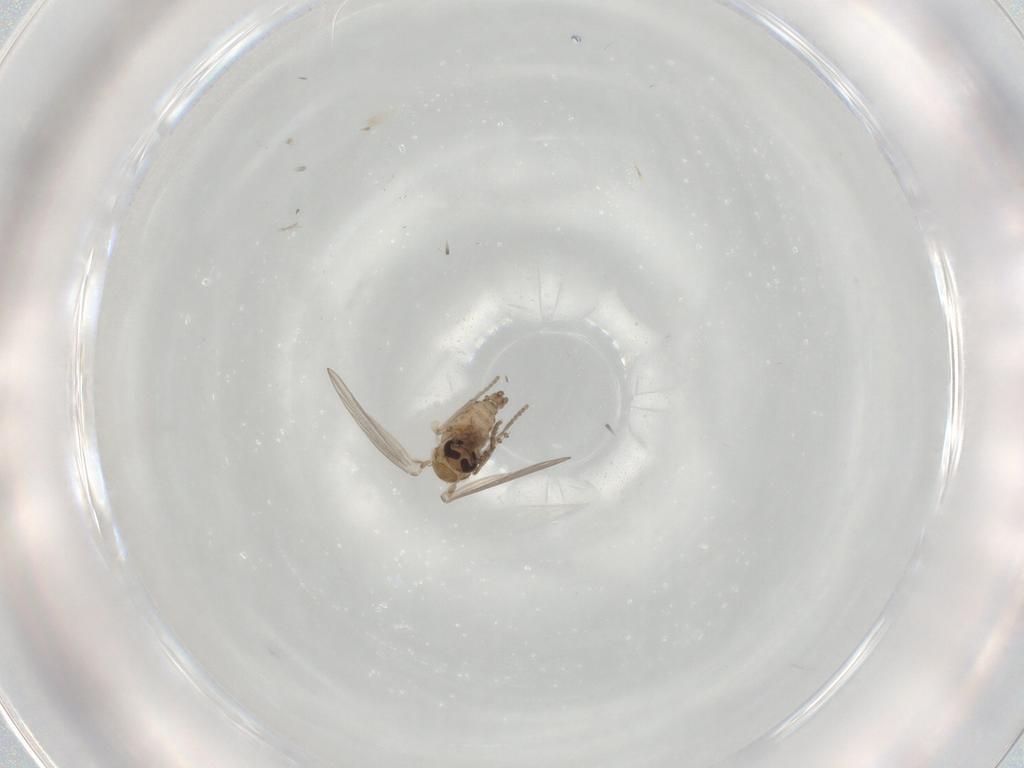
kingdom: Animalia
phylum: Arthropoda
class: Insecta
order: Diptera
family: Psychodidae
